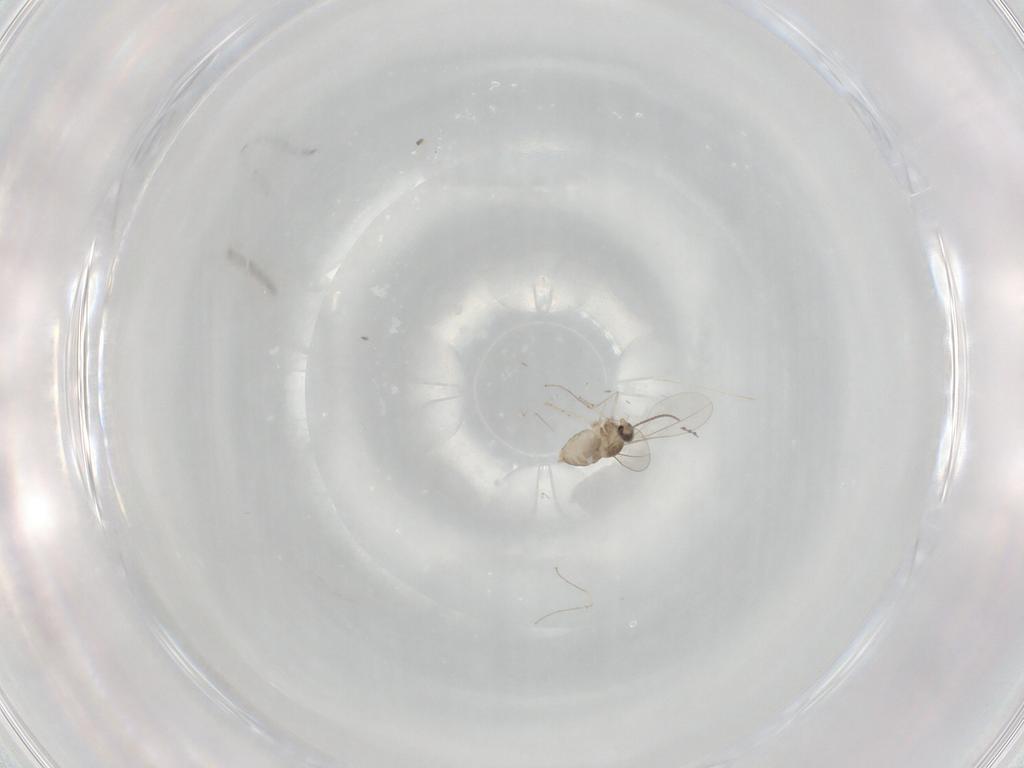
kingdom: Animalia
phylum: Arthropoda
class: Insecta
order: Diptera
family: Cecidomyiidae
